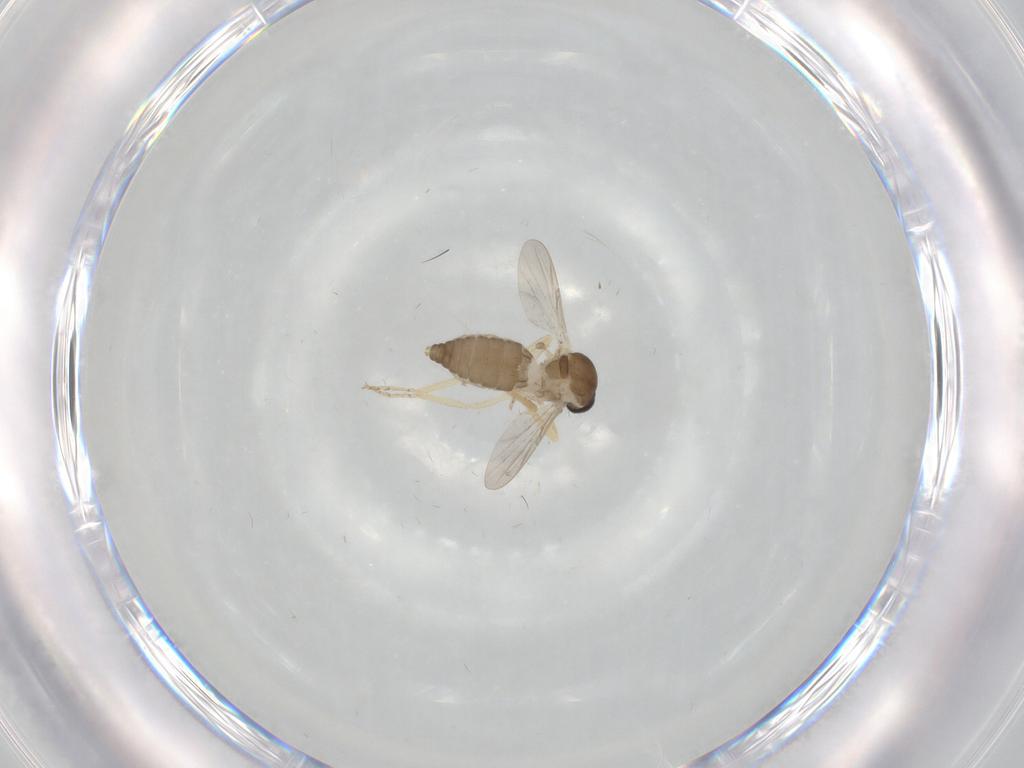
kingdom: Animalia
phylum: Arthropoda
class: Insecta
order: Diptera
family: Ceratopogonidae
